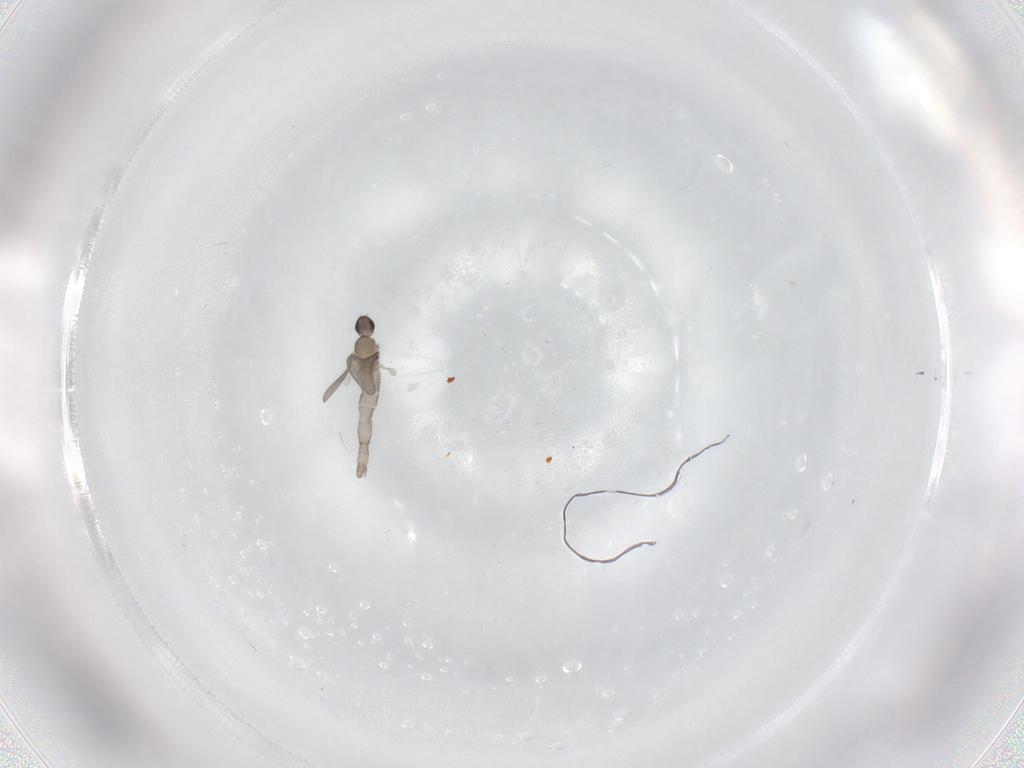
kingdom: Animalia
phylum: Arthropoda
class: Insecta
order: Diptera
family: Cecidomyiidae
